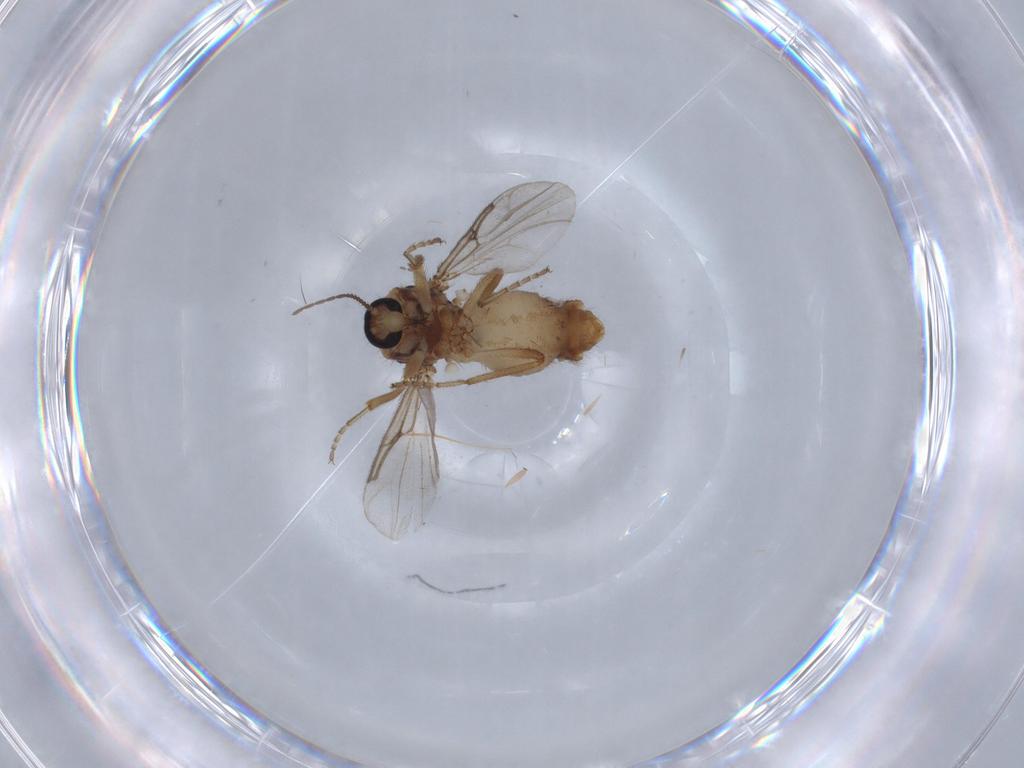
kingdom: Animalia
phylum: Arthropoda
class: Insecta
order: Diptera
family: Ceratopogonidae
